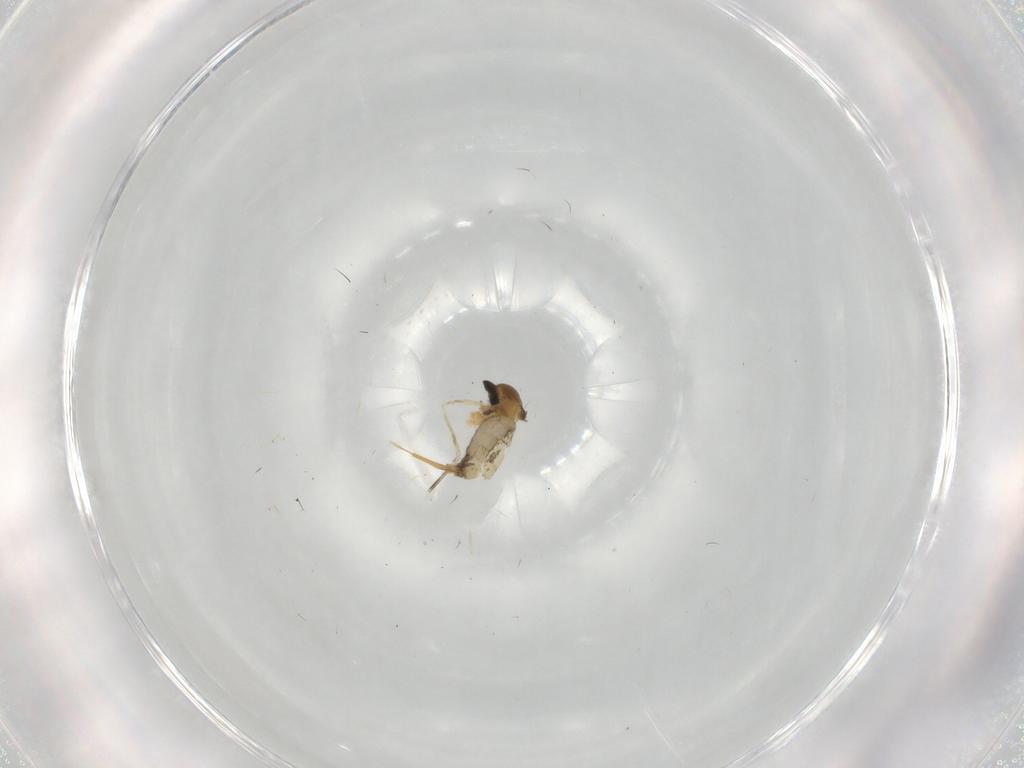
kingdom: Animalia
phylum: Arthropoda
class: Insecta
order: Diptera
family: Cecidomyiidae
